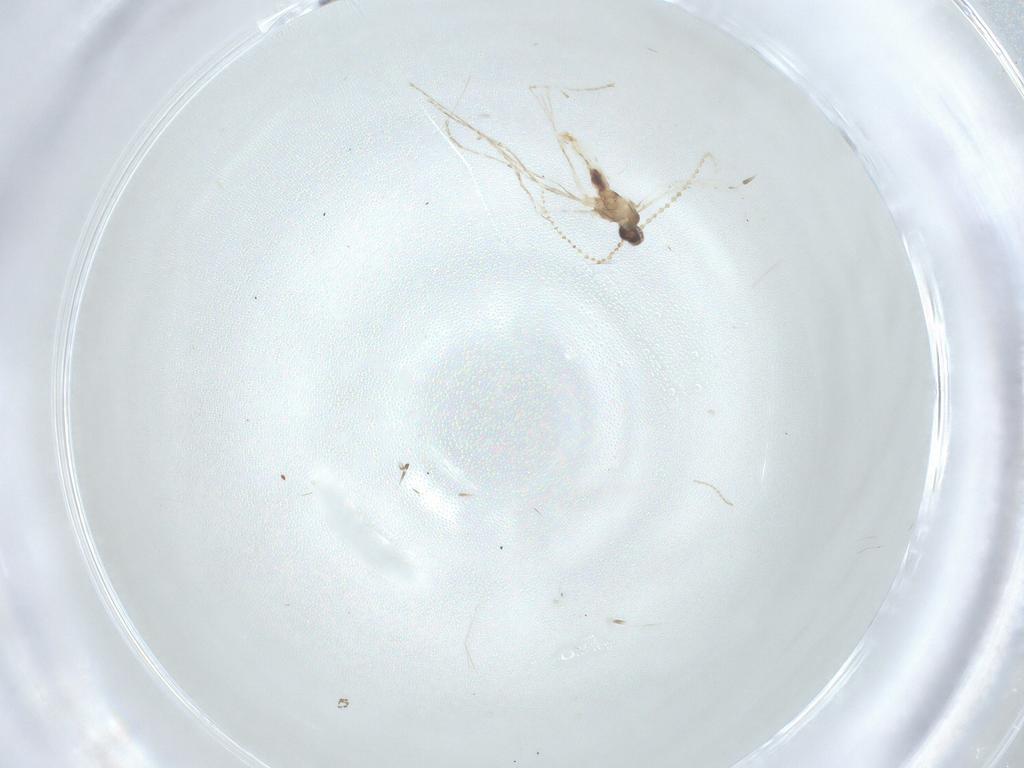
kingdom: Animalia
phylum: Arthropoda
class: Insecta
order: Diptera
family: Cecidomyiidae
